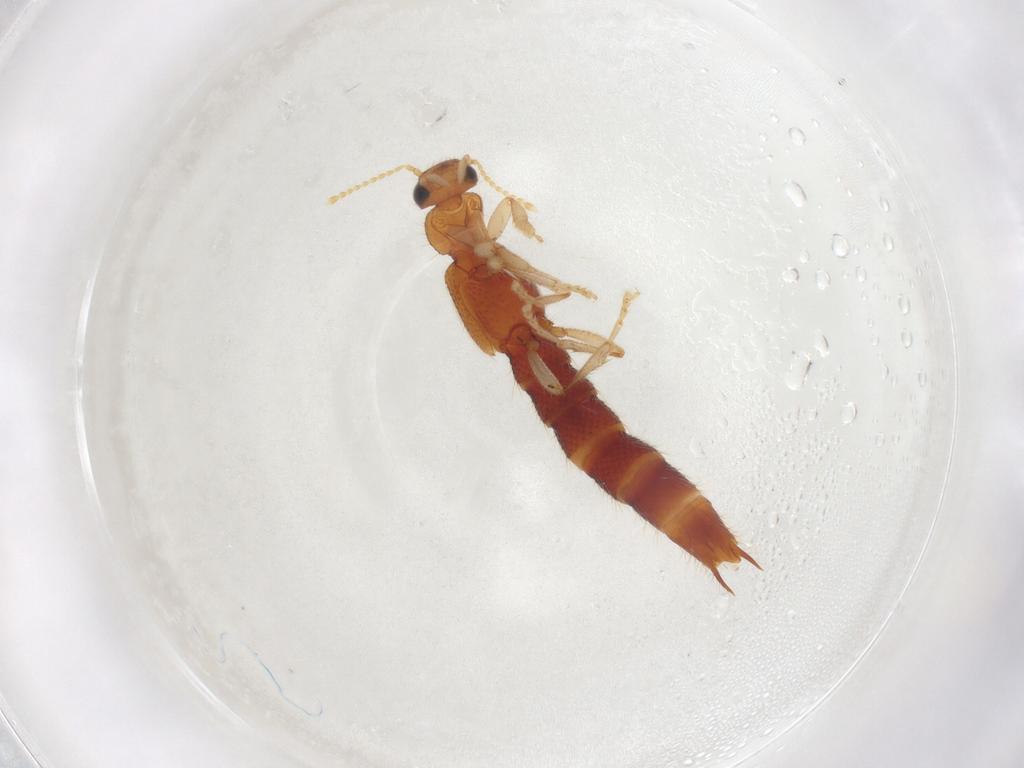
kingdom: Animalia
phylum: Arthropoda
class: Insecta
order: Coleoptera
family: Staphylinidae
